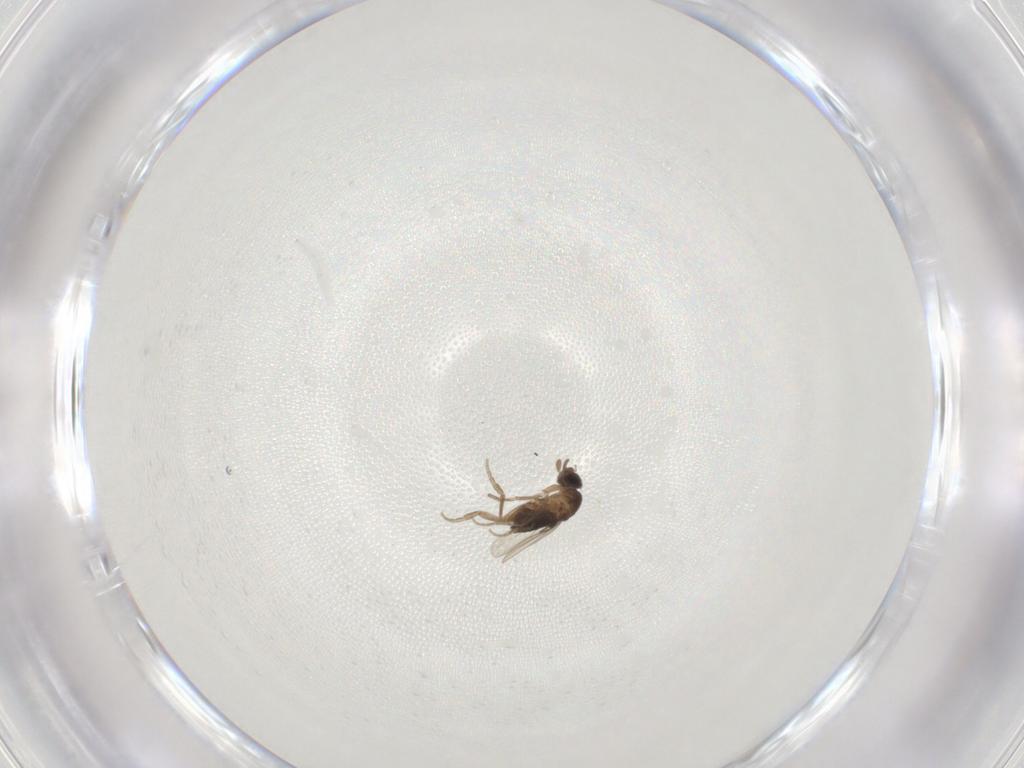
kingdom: Animalia
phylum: Arthropoda
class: Insecta
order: Diptera
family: Phoridae
